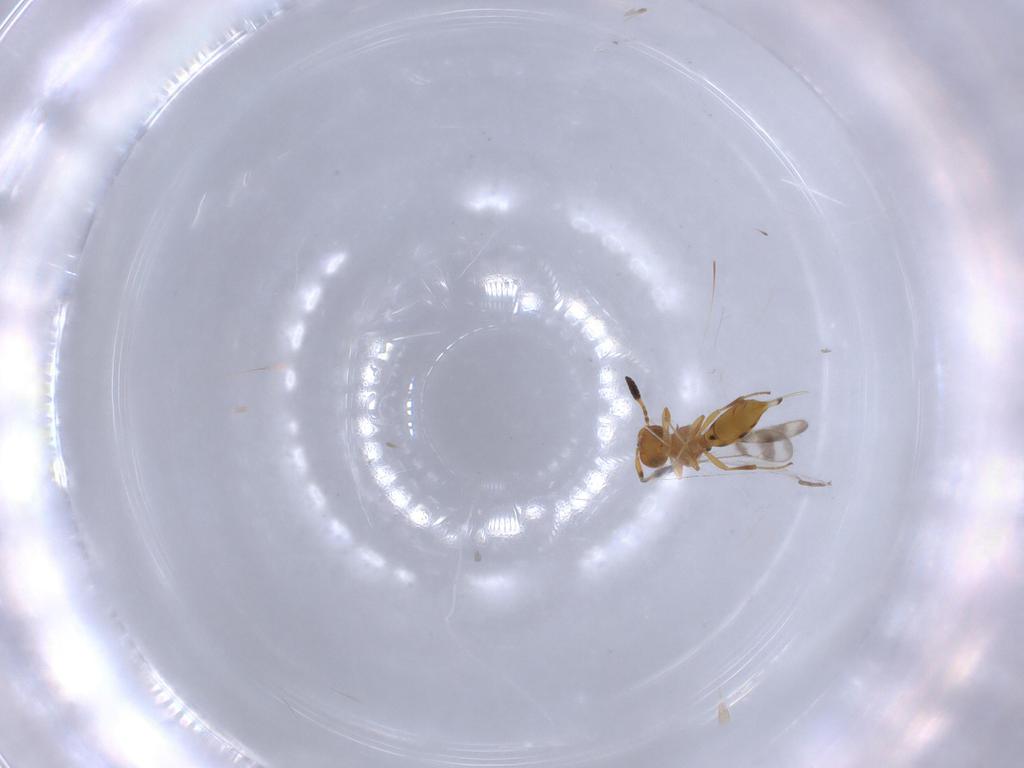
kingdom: Animalia
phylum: Arthropoda
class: Insecta
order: Hymenoptera
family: Scelionidae
